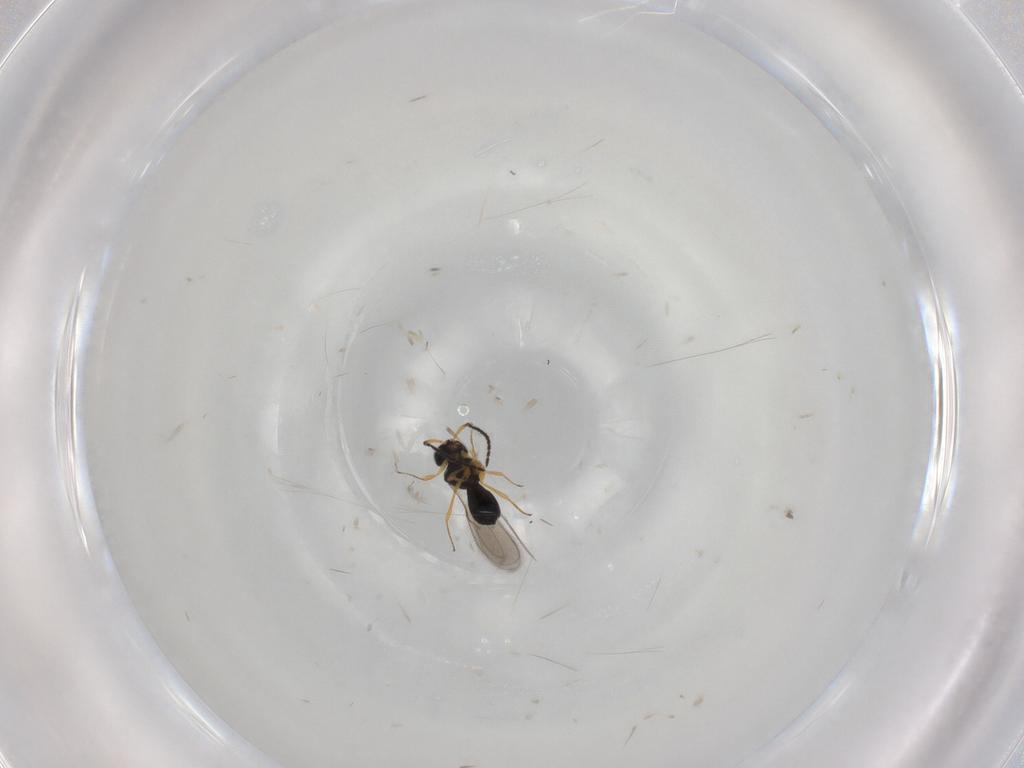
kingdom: Animalia
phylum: Arthropoda
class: Insecta
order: Hymenoptera
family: Scelionidae
